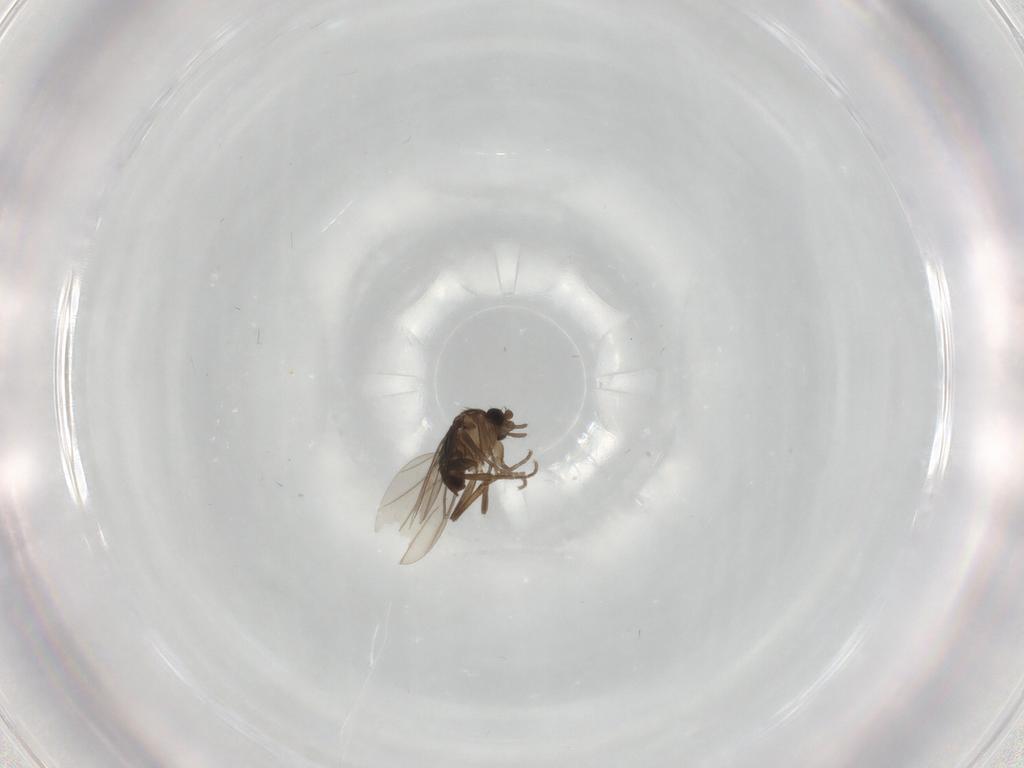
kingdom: Animalia
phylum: Arthropoda
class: Insecta
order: Diptera
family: Phoridae
